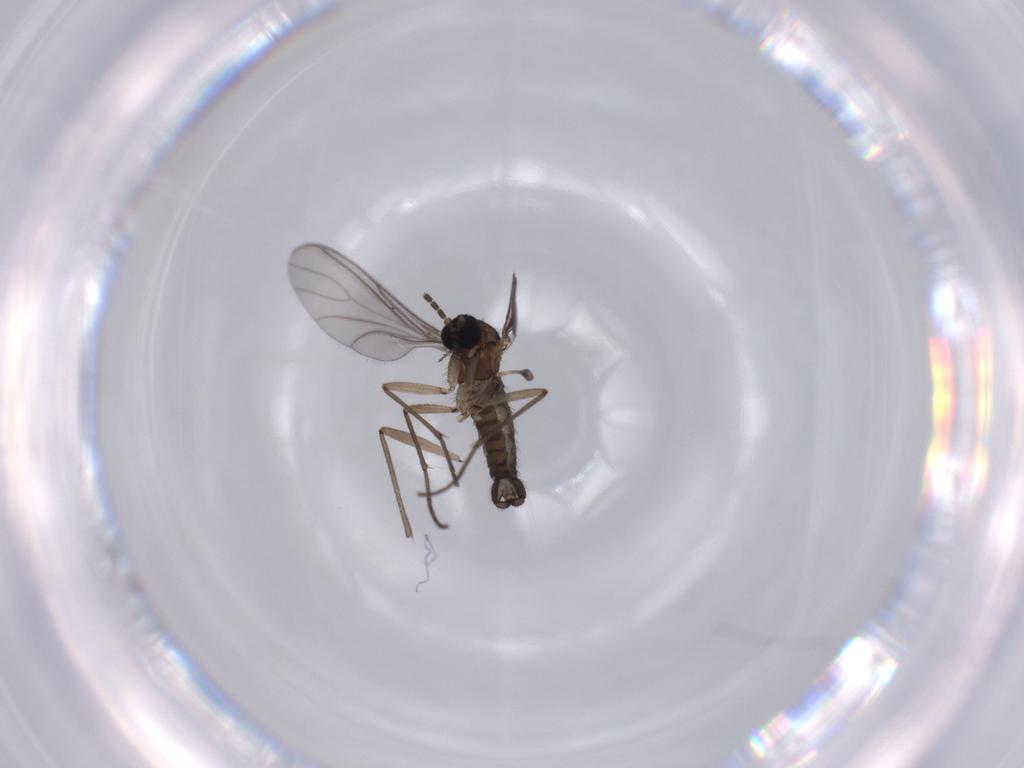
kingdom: Animalia
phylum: Arthropoda
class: Insecta
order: Diptera
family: Sciaridae
